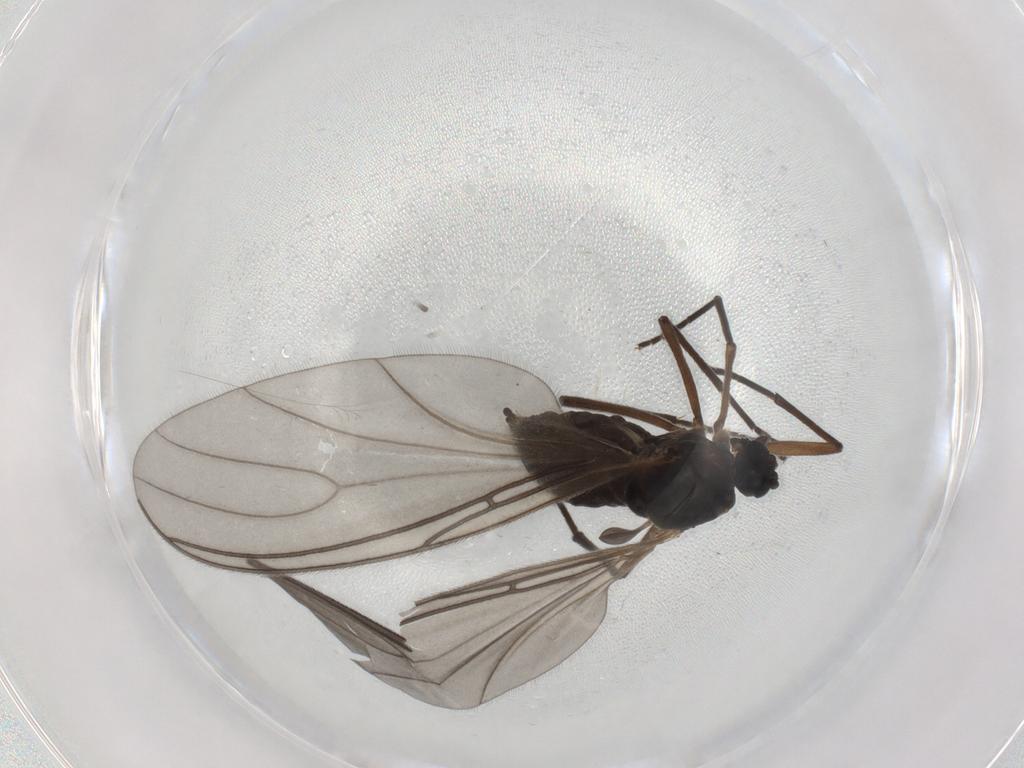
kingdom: Animalia
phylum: Arthropoda
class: Insecta
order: Diptera
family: Sciaridae
